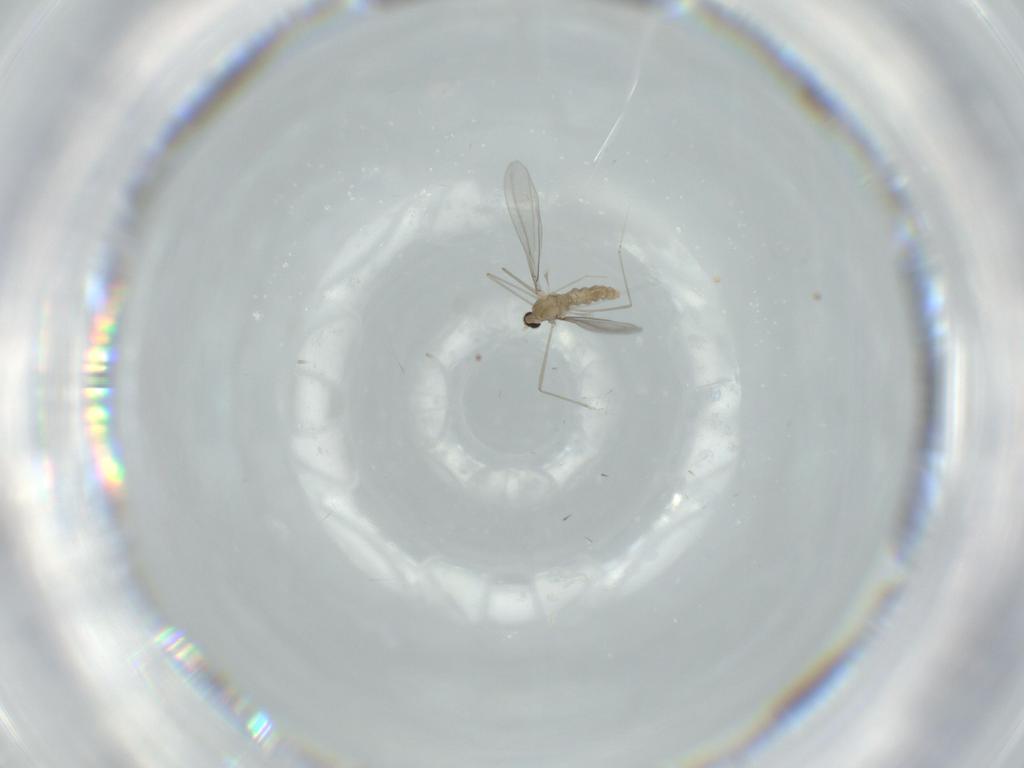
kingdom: Animalia
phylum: Arthropoda
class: Insecta
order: Diptera
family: Cecidomyiidae
